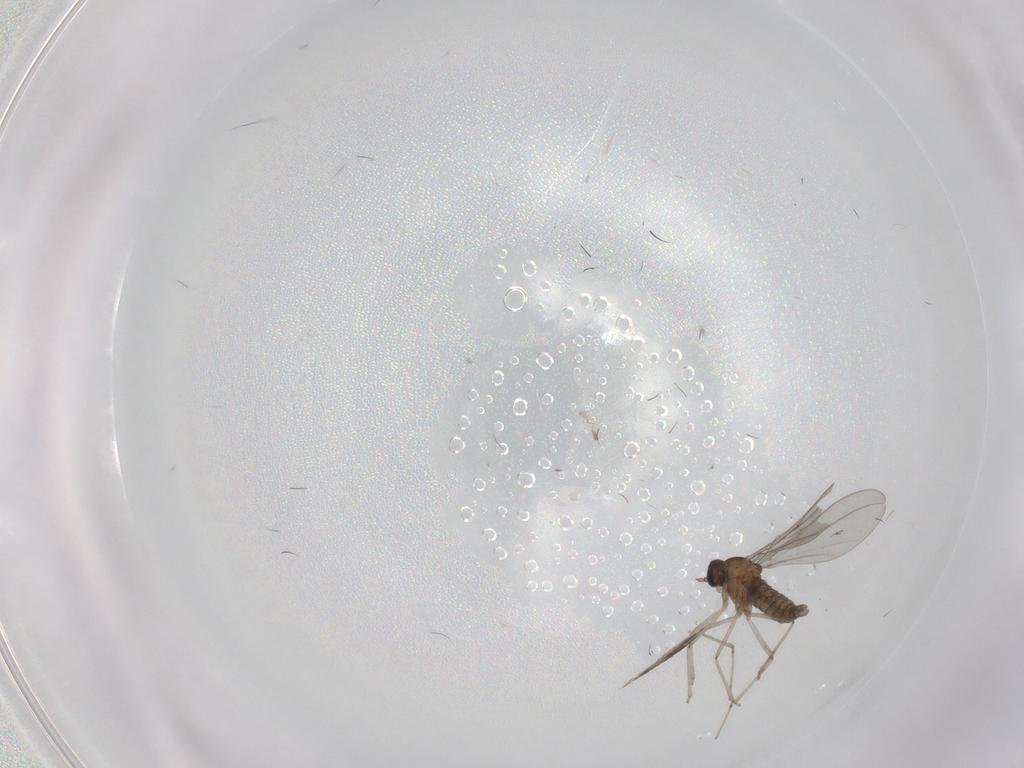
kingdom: Animalia
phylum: Arthropoda
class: Insecta
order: Diptera
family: Cecidomyiidae
